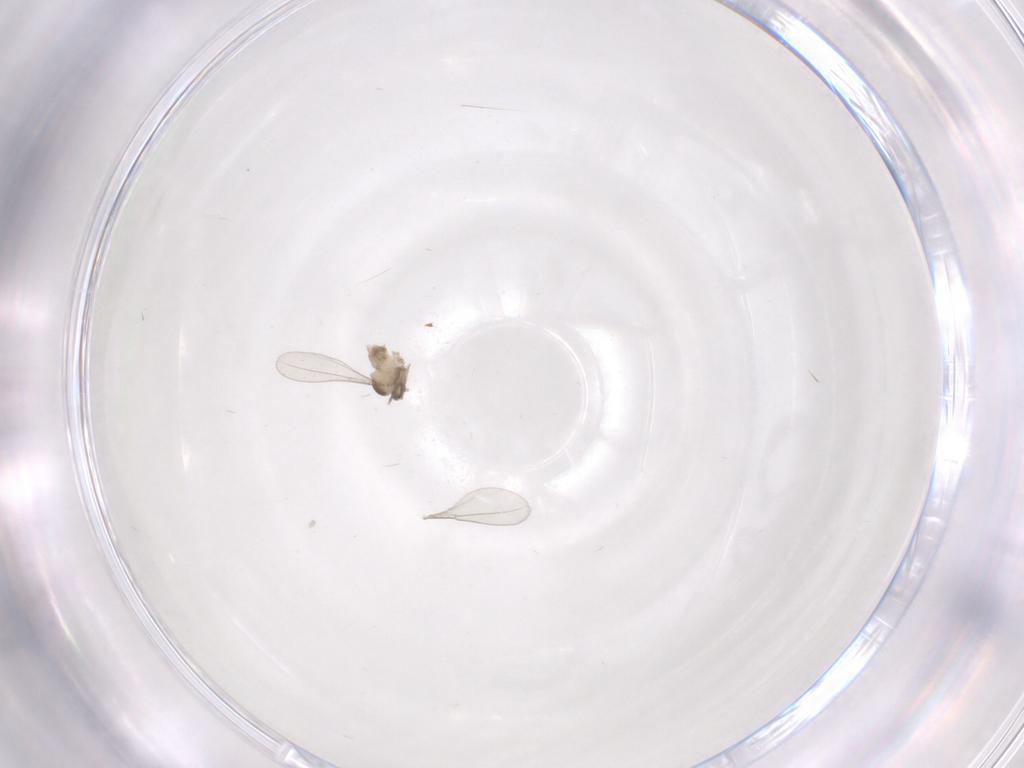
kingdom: Animalia
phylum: Arthropoda
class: Insecta
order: Diptera
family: Cecidomyiidae
